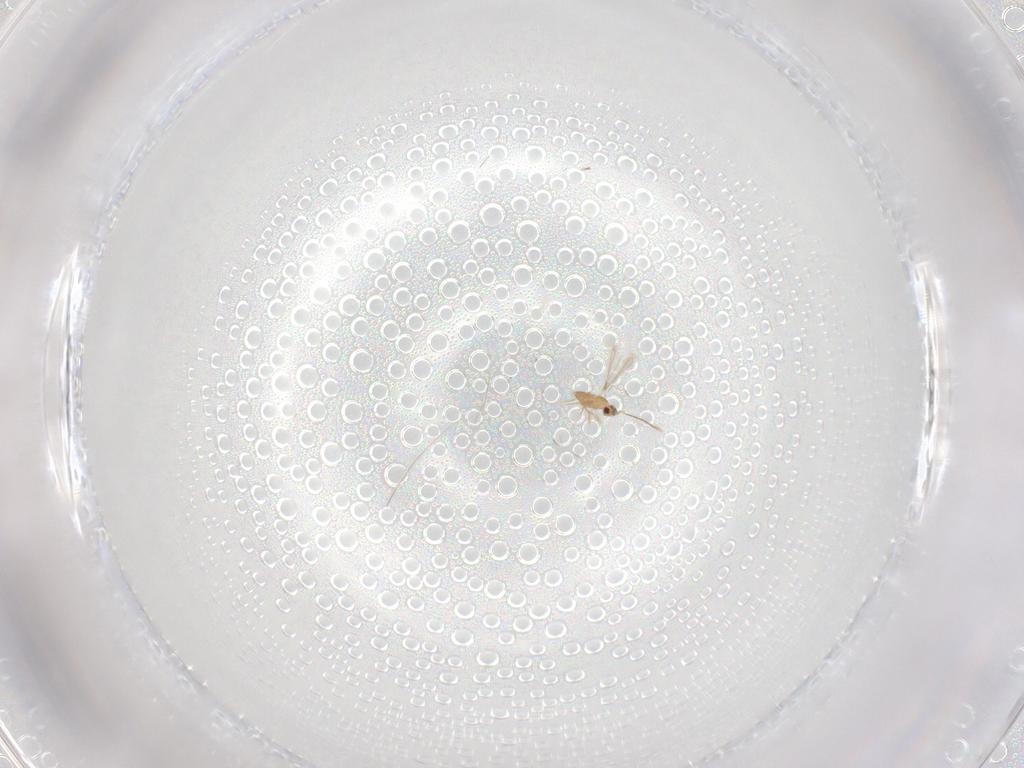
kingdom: Animalia
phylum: Arthropoda
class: Insecta
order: Hymenoptera
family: Mymaridae
